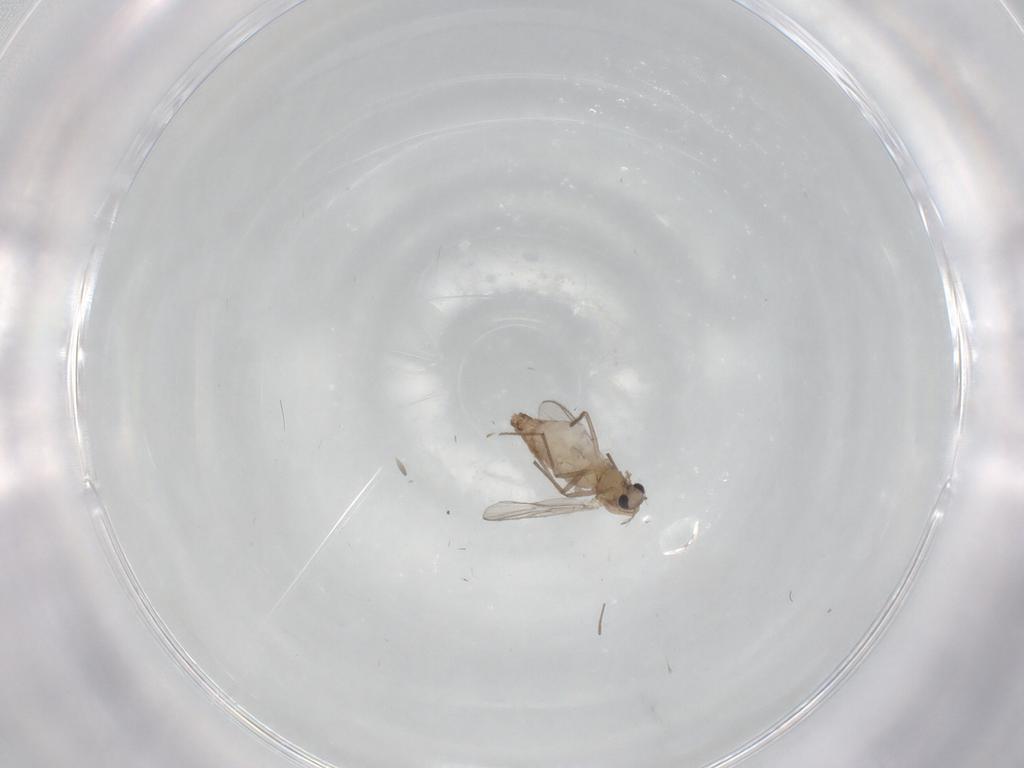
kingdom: Animalia
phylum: Arthropoda
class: Insecta
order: Diptera
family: Chironomidae
